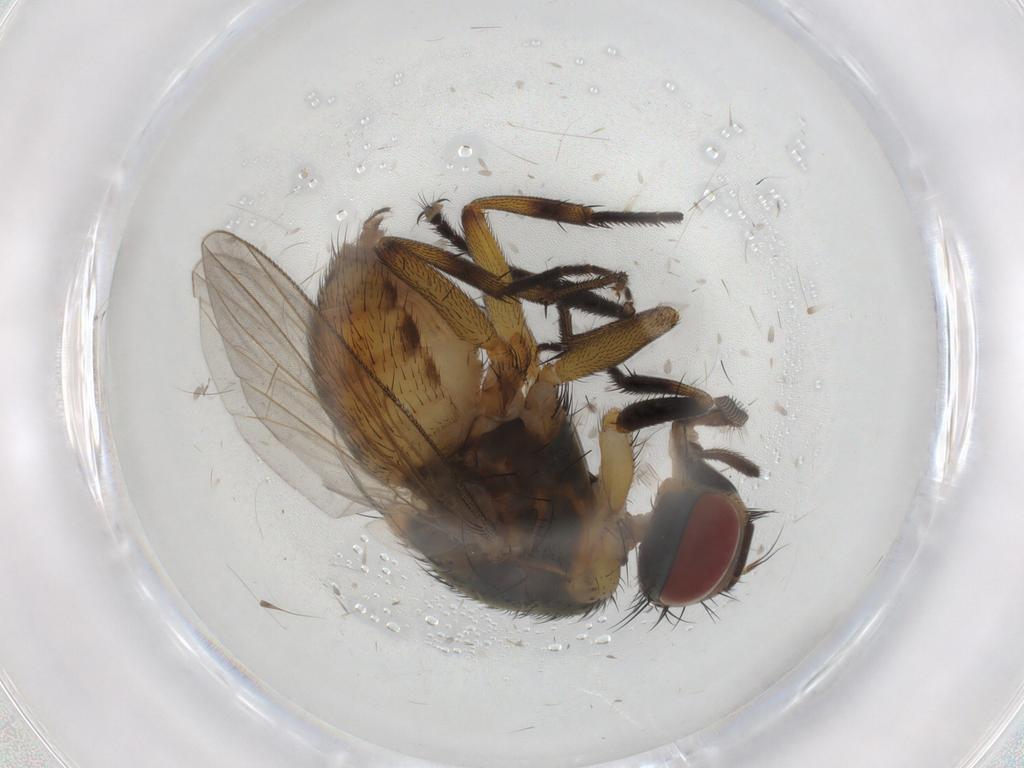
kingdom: Animalia
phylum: Arthropoda
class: Insecta
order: Diptera
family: Muscidae
